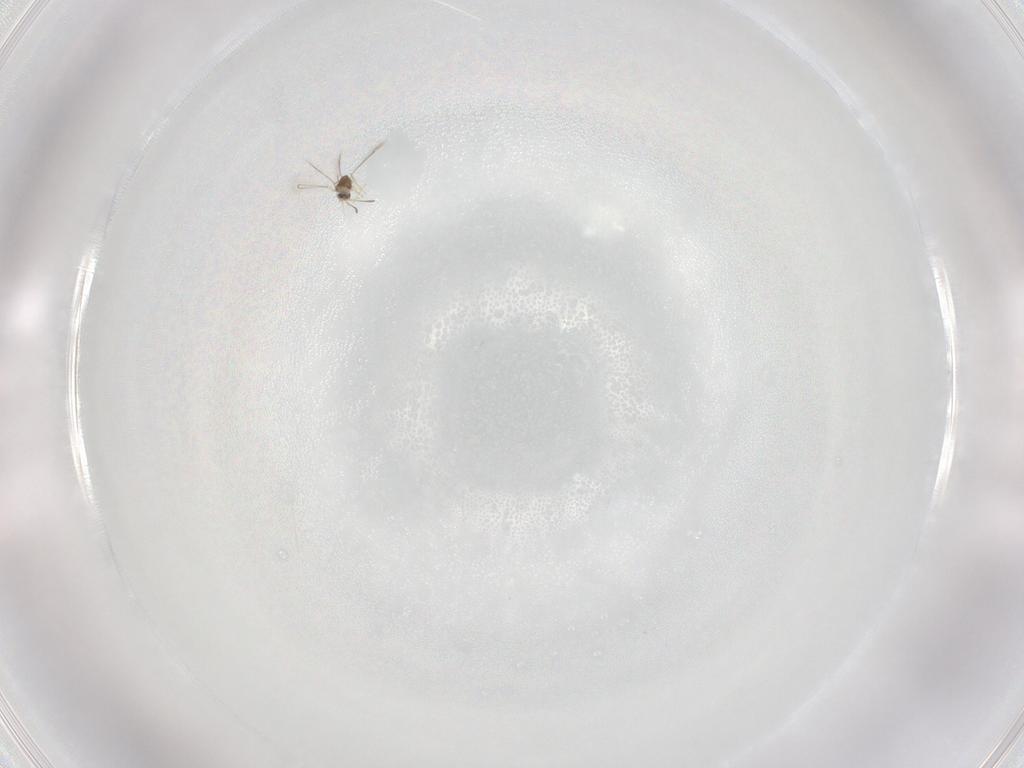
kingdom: Animalia
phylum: Arthropoda
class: Insecta
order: Hymenoptera
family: Mymaridae
